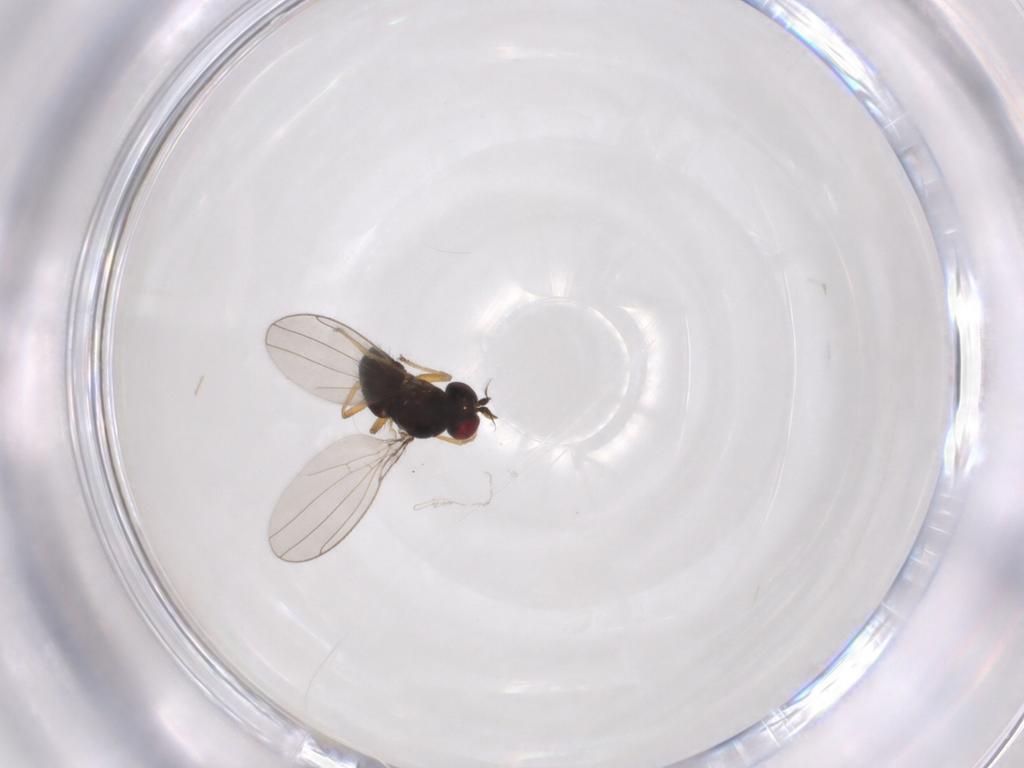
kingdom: Animalia
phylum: Arthropoda
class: Insecta
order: Diptera
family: Ephydridae
